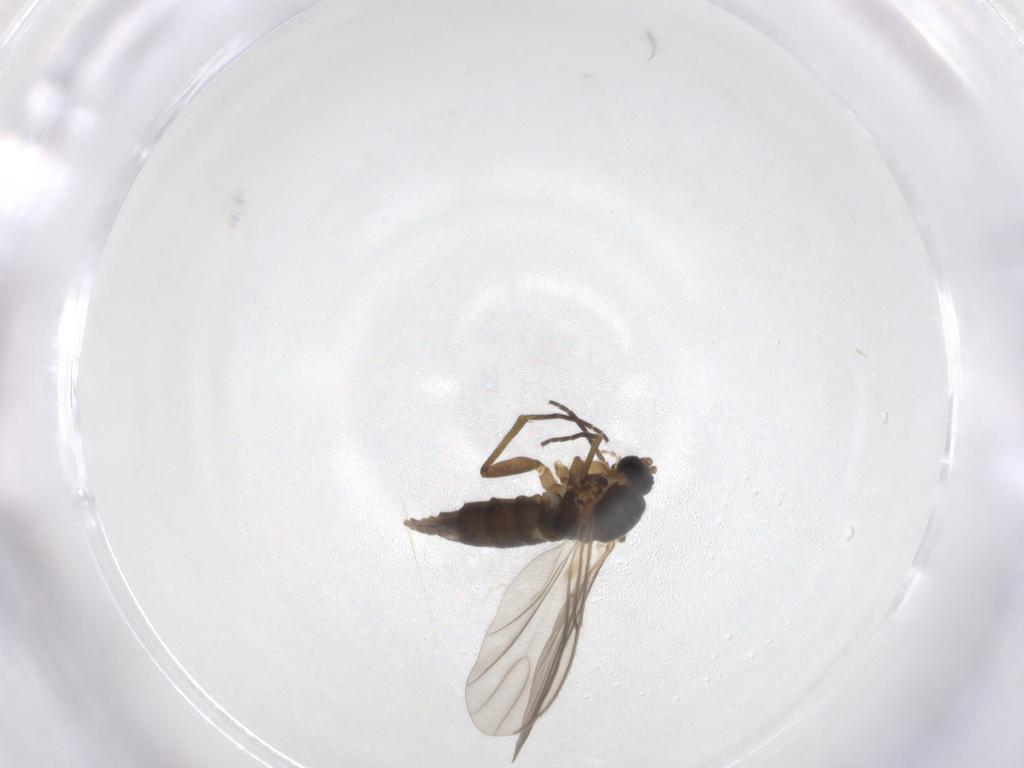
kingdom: Animalia
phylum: Arthropoda
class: Insecta
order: Diptera
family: Sciaridae
